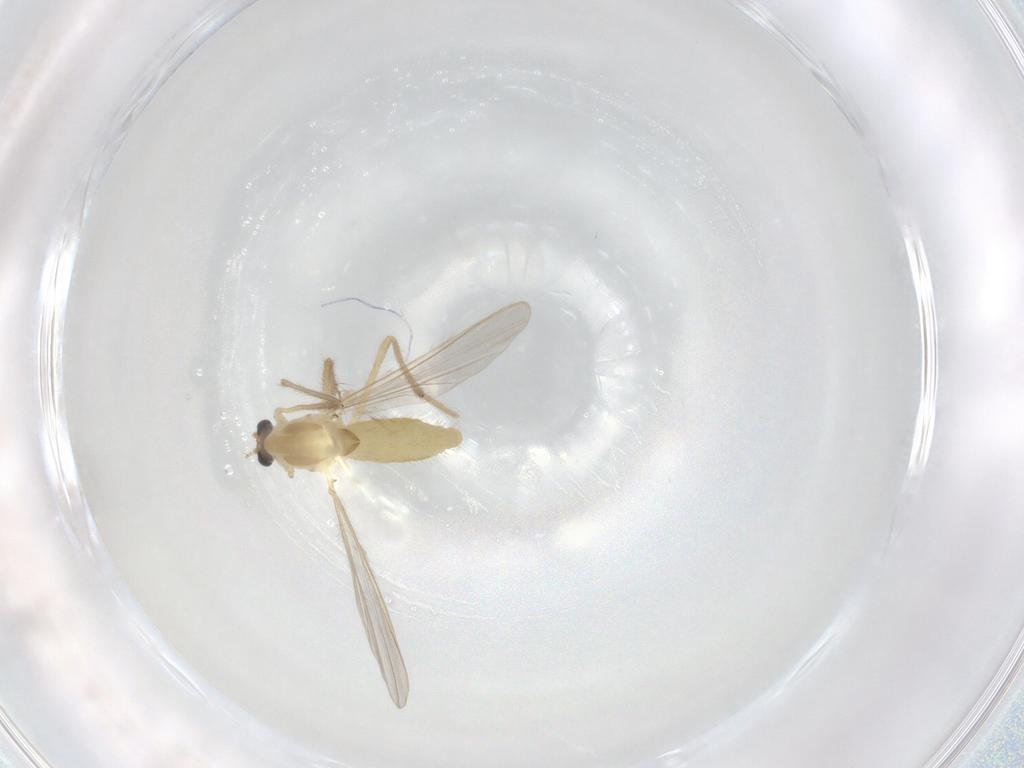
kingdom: Animalia
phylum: Arthropoda
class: Insecta
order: Diptera
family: Chironomidae
